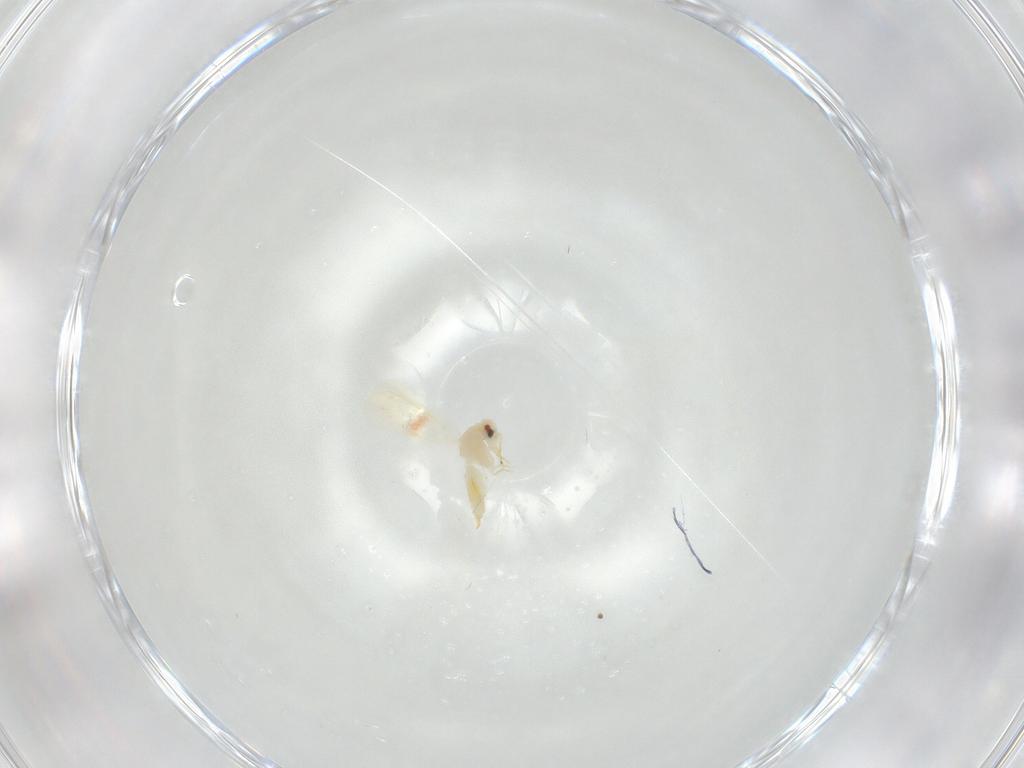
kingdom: Animalia
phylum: Arthropoda
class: Insecta
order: Hemiptera
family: Aleyrodidae
